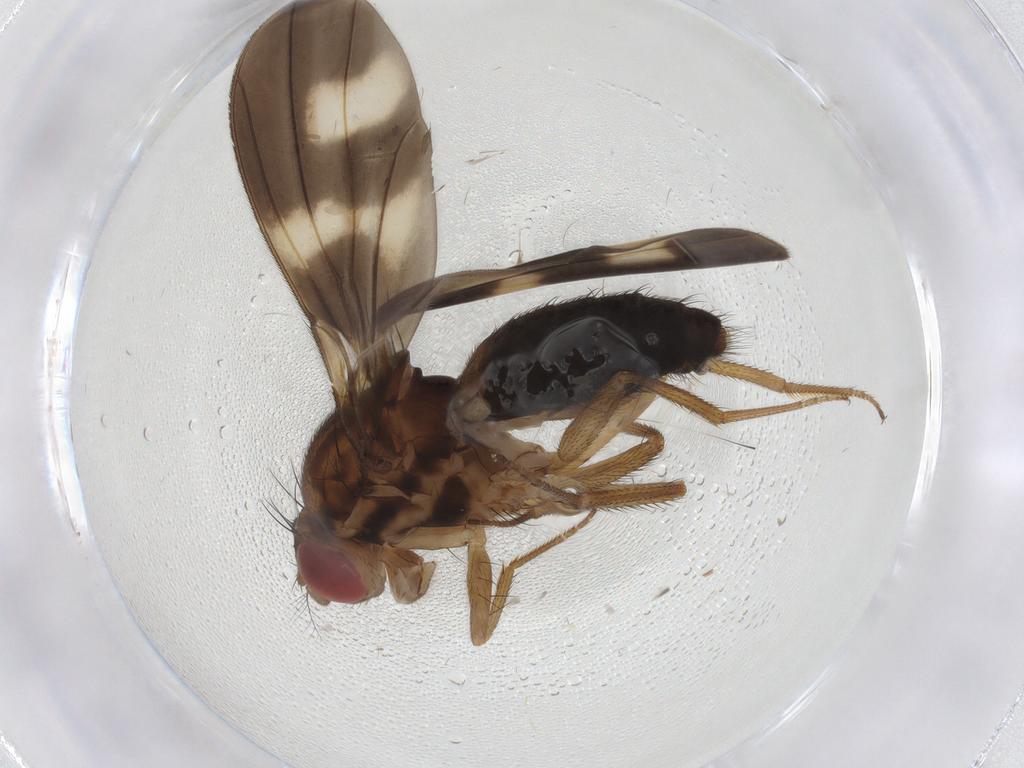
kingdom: Animalia
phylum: Arthropoda
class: Insecta
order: Diptera
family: Drosophilidae
